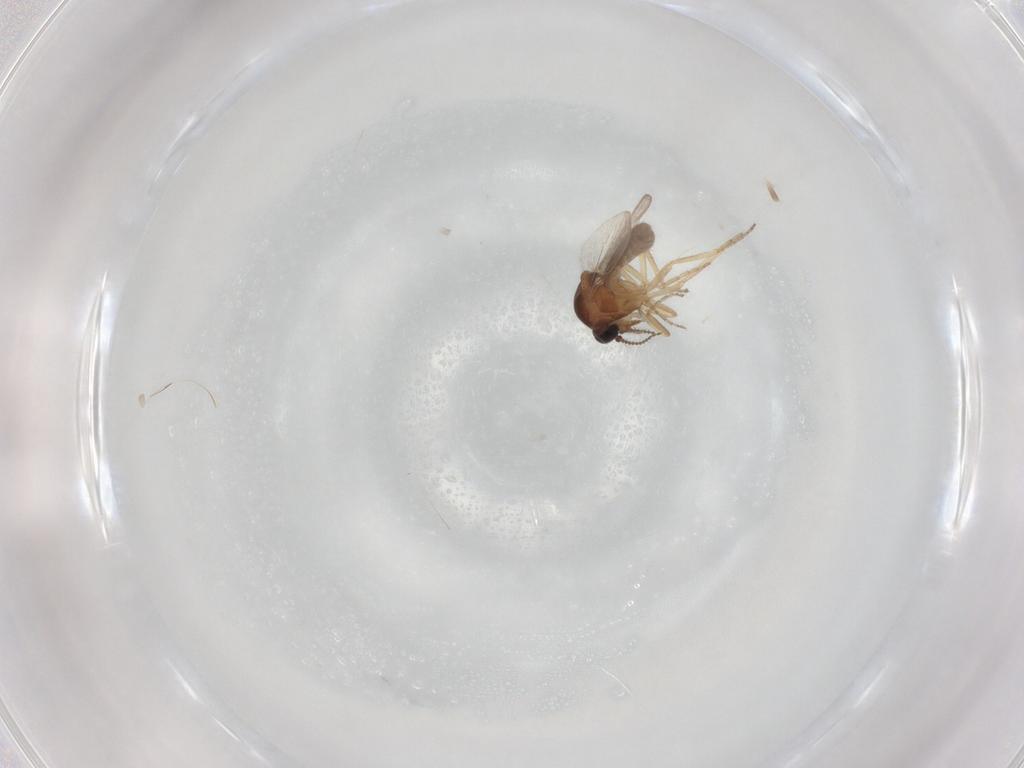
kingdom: Animalia
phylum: Arthropoda
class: Insecta
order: Diptera
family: Ceratopogonidae
